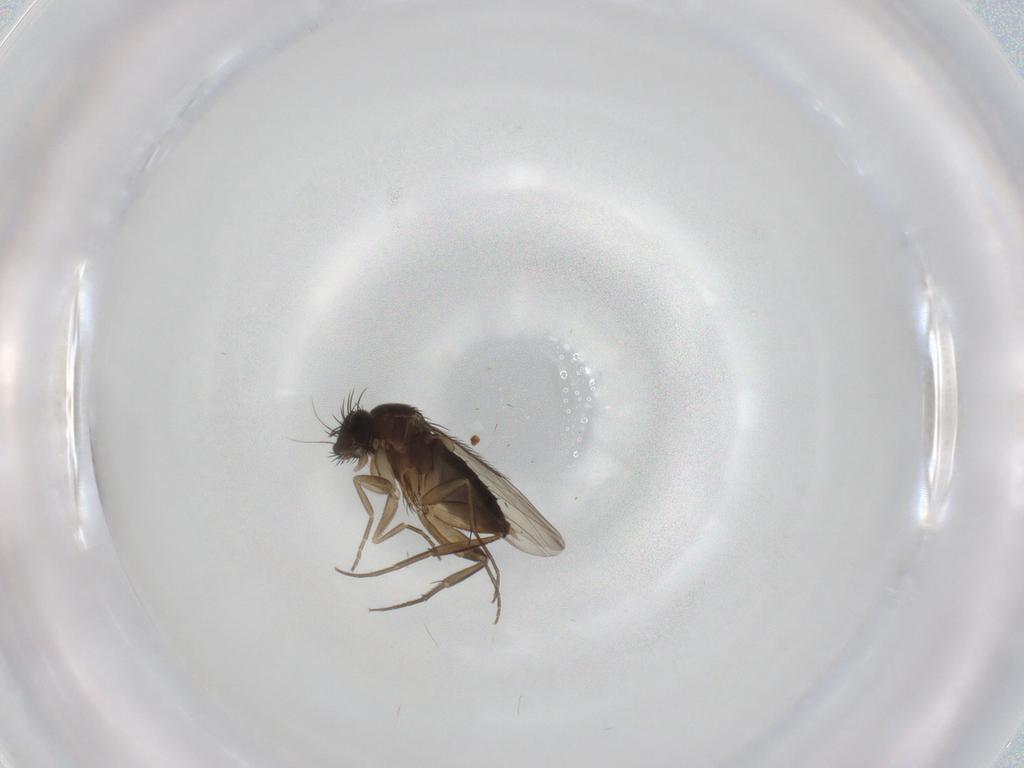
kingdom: Animalia
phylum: Arthropoda
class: Insecta
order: Diptera
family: Phoridae
